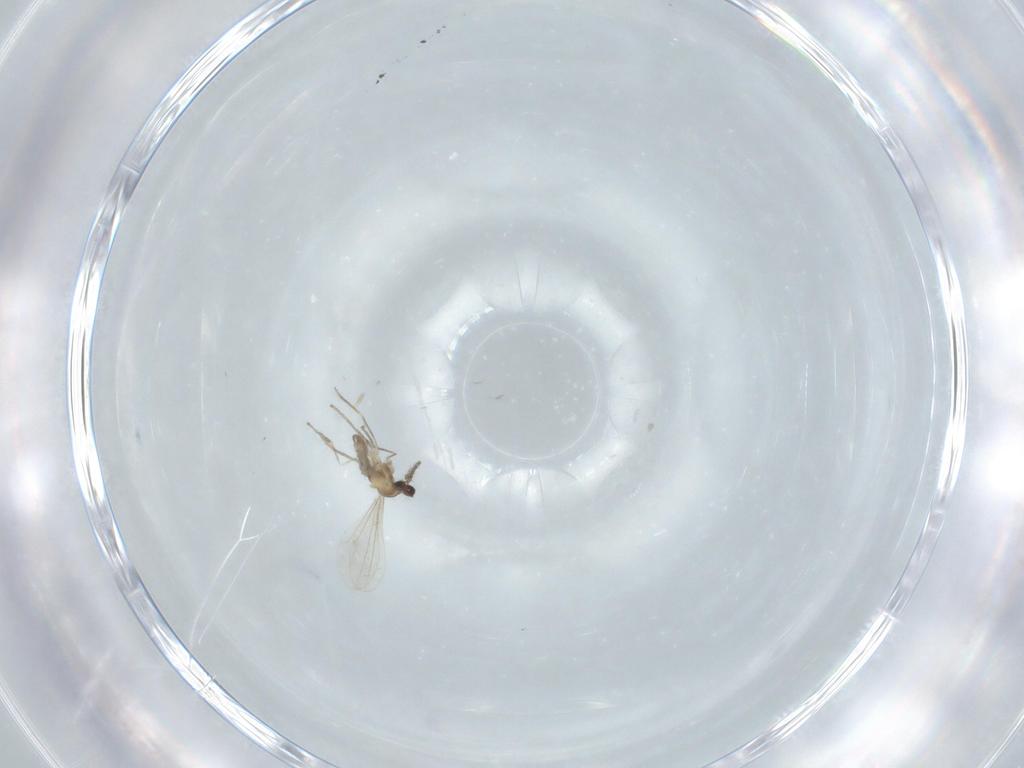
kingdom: Animalia
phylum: Arthropoda
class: Insecta
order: Diptera
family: Cecidomyiidae
